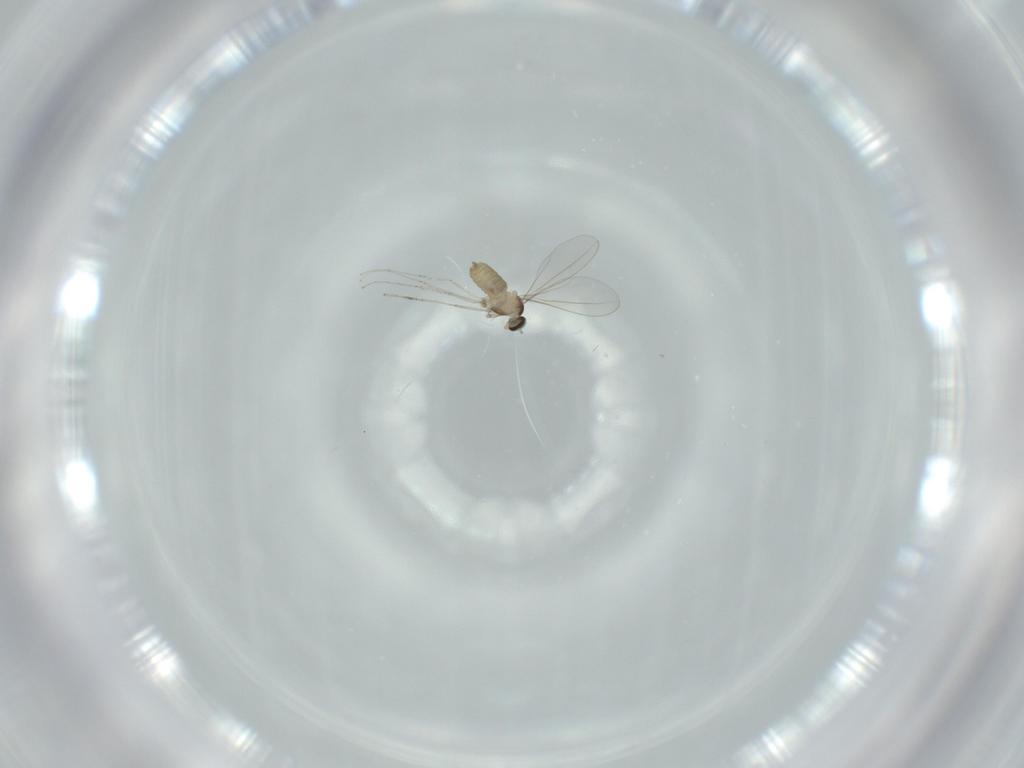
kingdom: Animalia
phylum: Arthropoda
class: Insecta
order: Diptera
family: Cecidomyiidae
